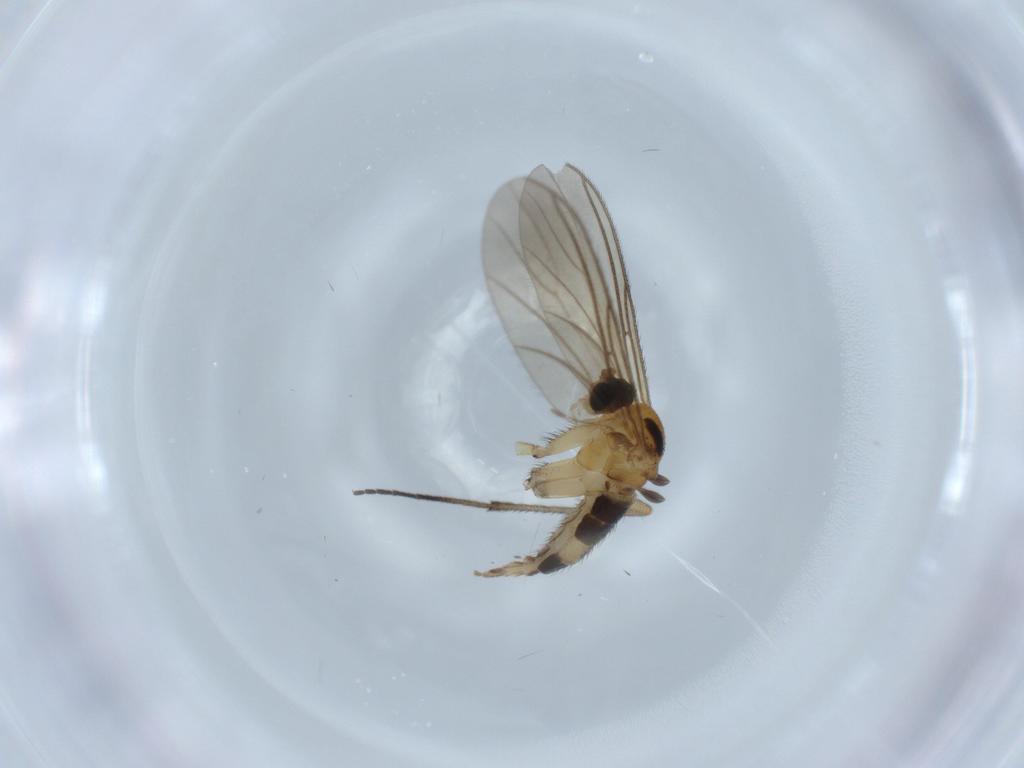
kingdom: Animalia
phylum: Arthropoda
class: Insecta
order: Diptera
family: Sciaridae
